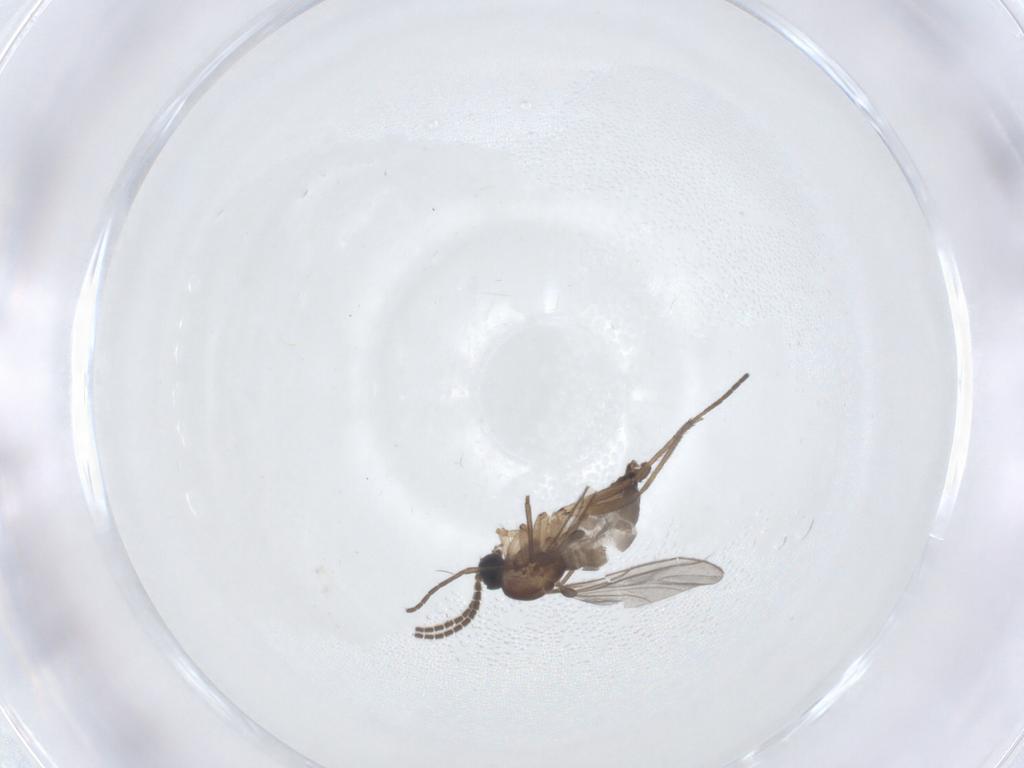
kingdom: Animalia
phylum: Arthropoda
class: Insecta
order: Diptera
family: Sciaridae
